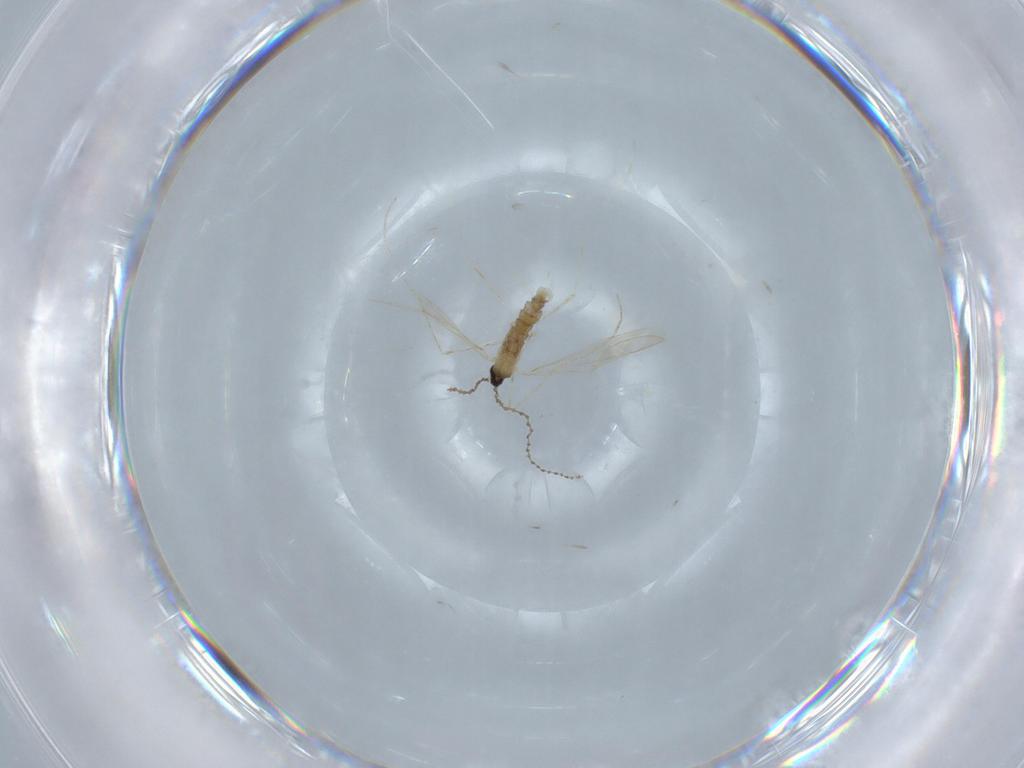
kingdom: Animalia
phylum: Arthropoda
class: Insecta
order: Diptera
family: Cecidomyiidae
